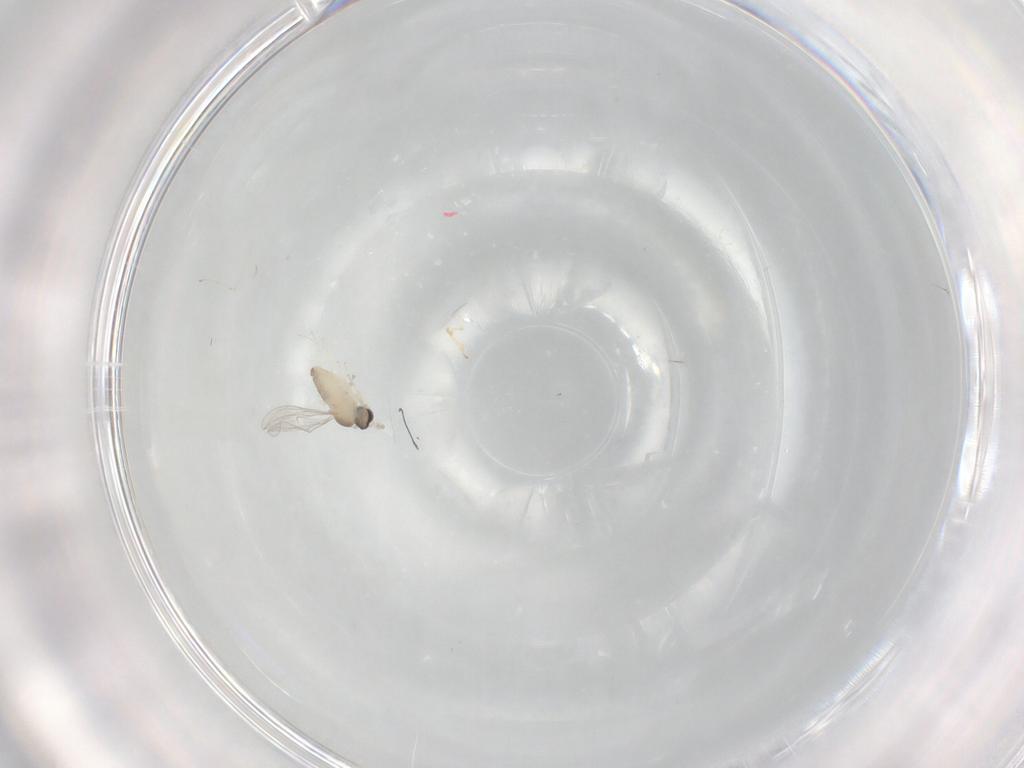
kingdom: Animalia
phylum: Arthropoda
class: Insecta
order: Diptera
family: Cecidomyiidae
